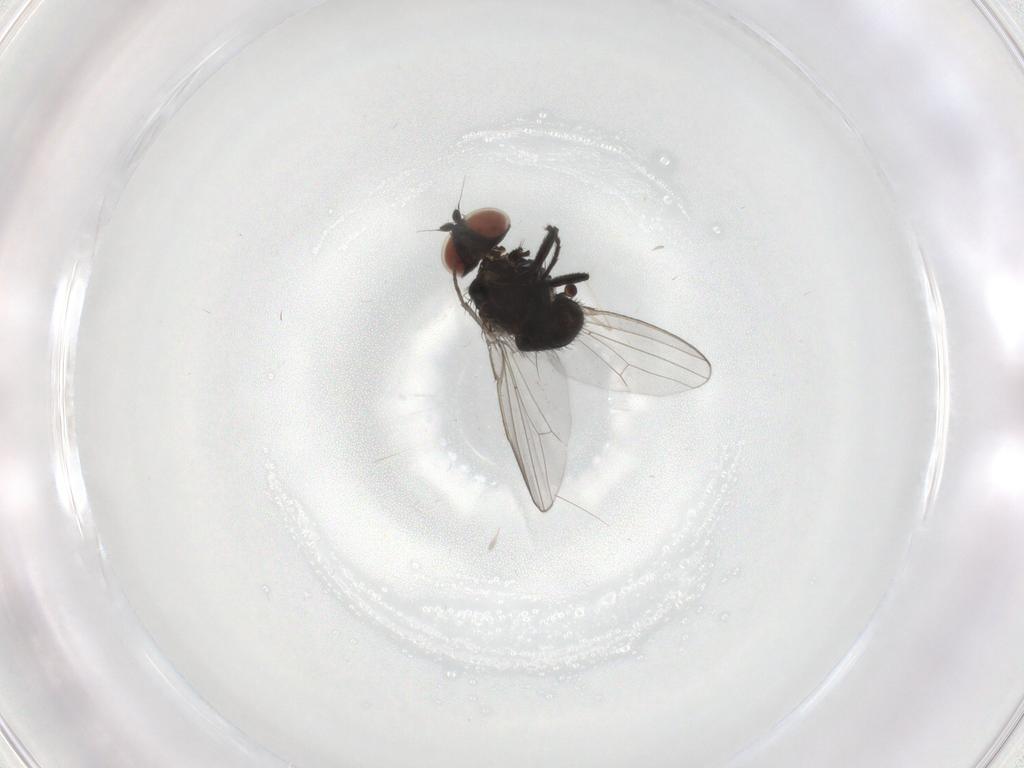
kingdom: Animalia
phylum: Arthropoda
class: Insecta
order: Diptera
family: Milichiidae
